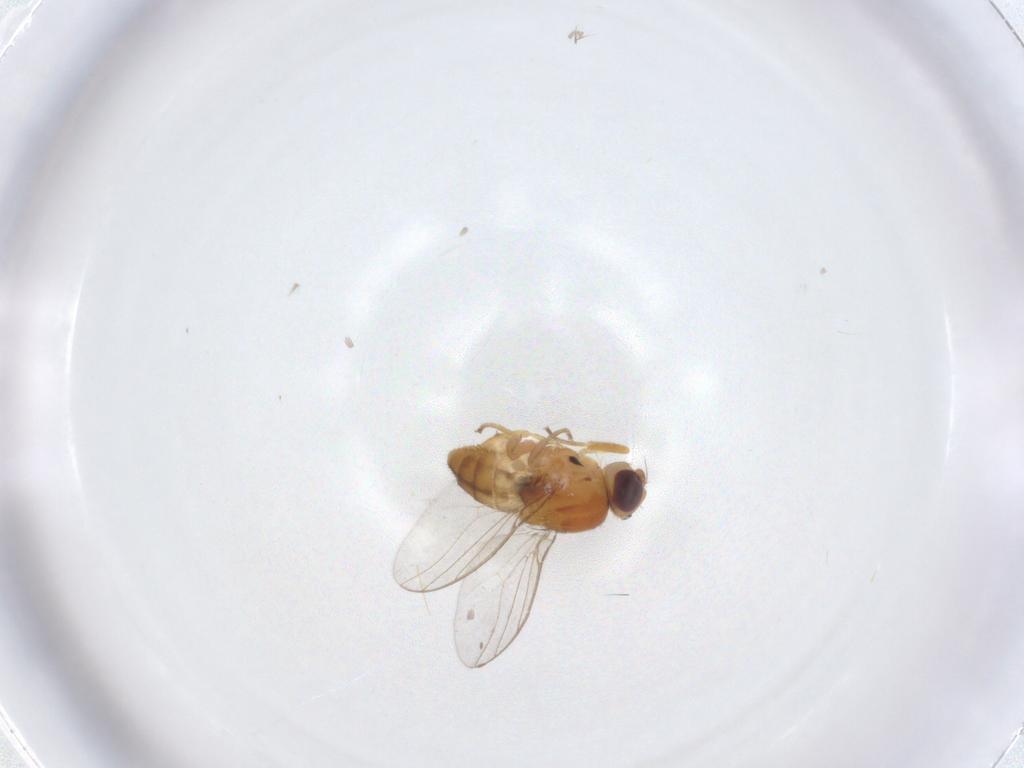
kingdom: Animalia
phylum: Arthropoda
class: Insecta
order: Diptera
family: Chloropidae
